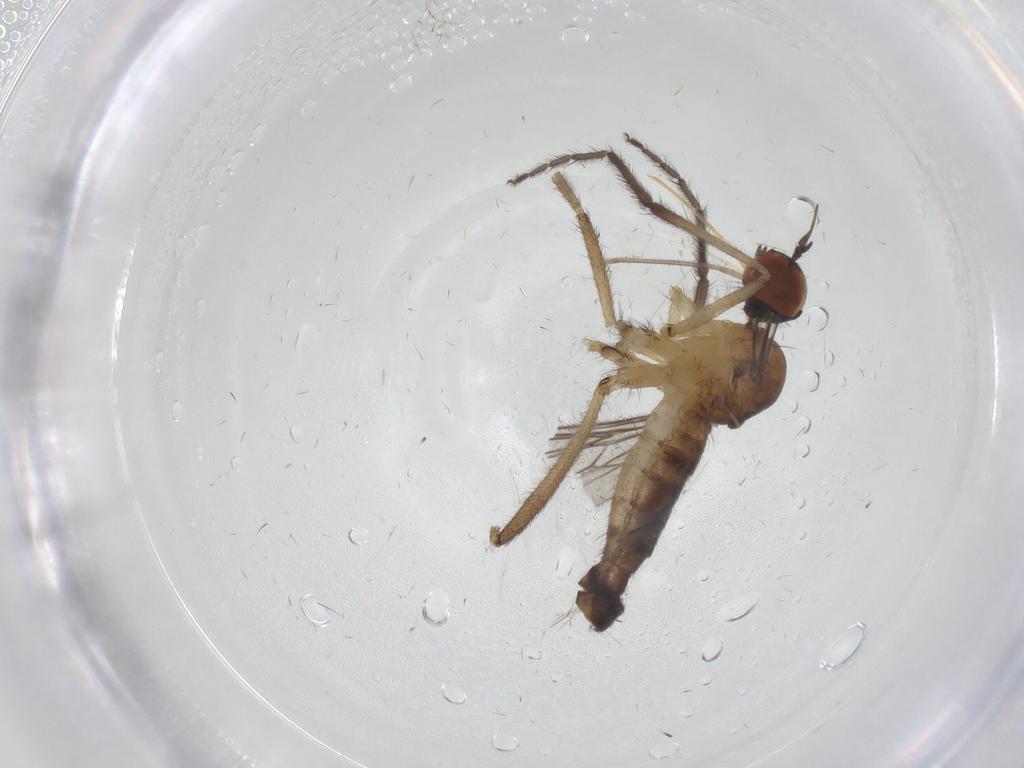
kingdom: Animalia
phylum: Arthropoda
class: Insecta
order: Diptera
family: Empididae
